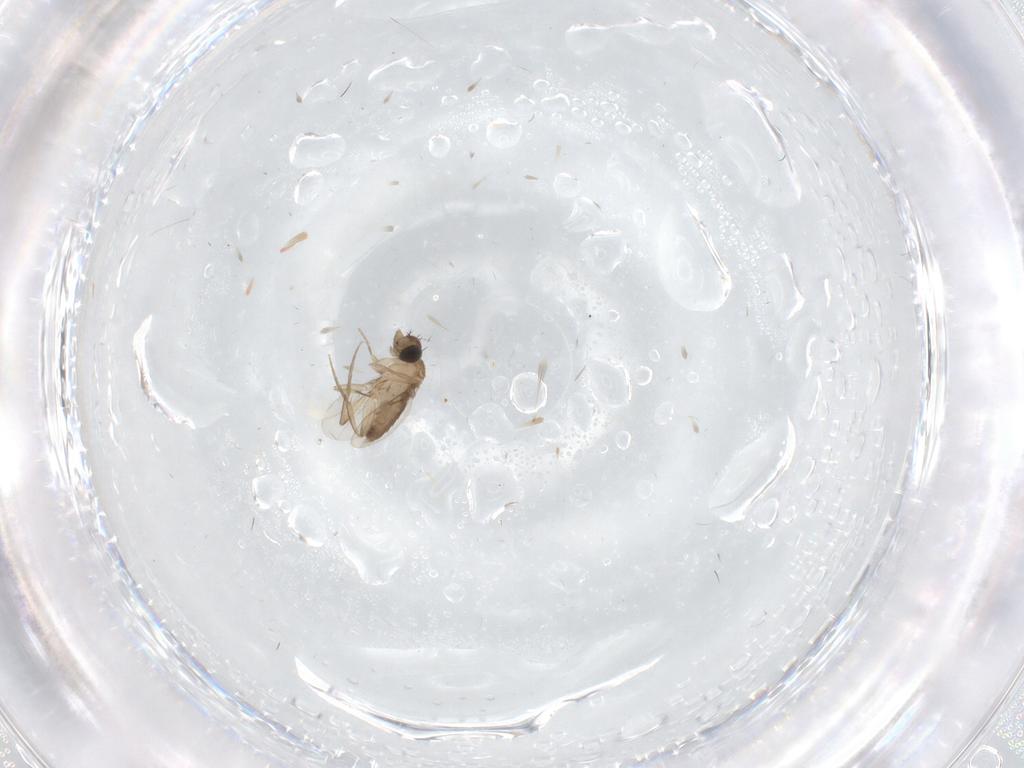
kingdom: Animalia
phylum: Arthropoda
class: Insecta
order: Diptera
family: Phoridae
